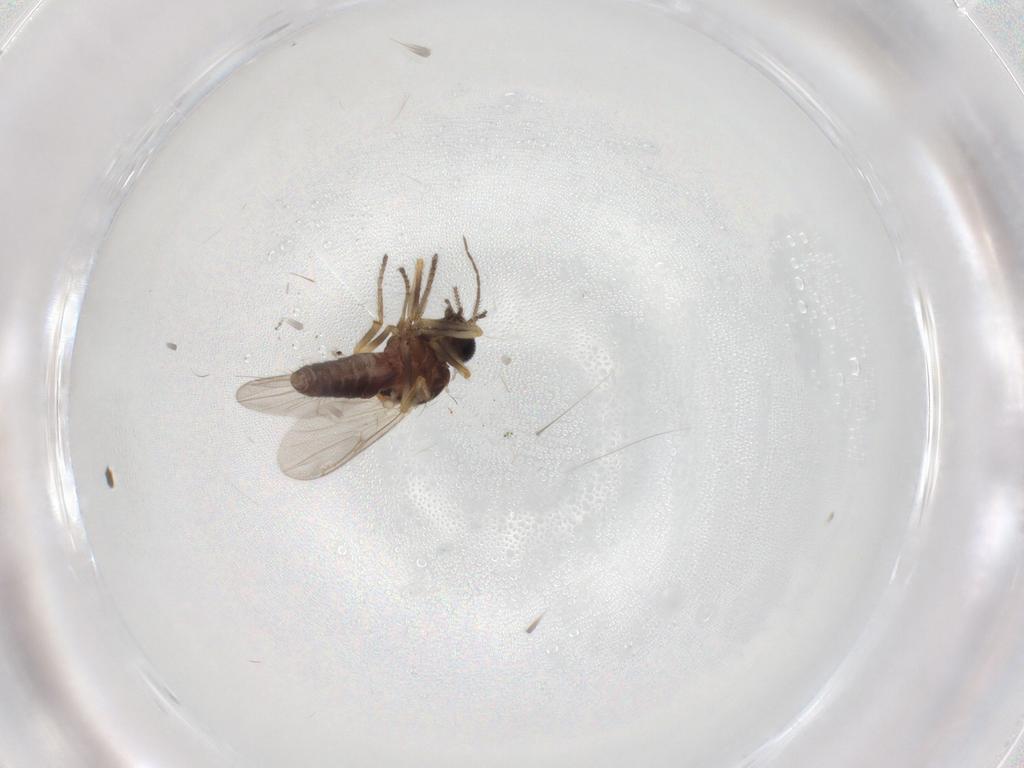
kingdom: Animalia
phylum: Arthropoda
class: Insecta
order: Diptera
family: Ceratopogonidae
